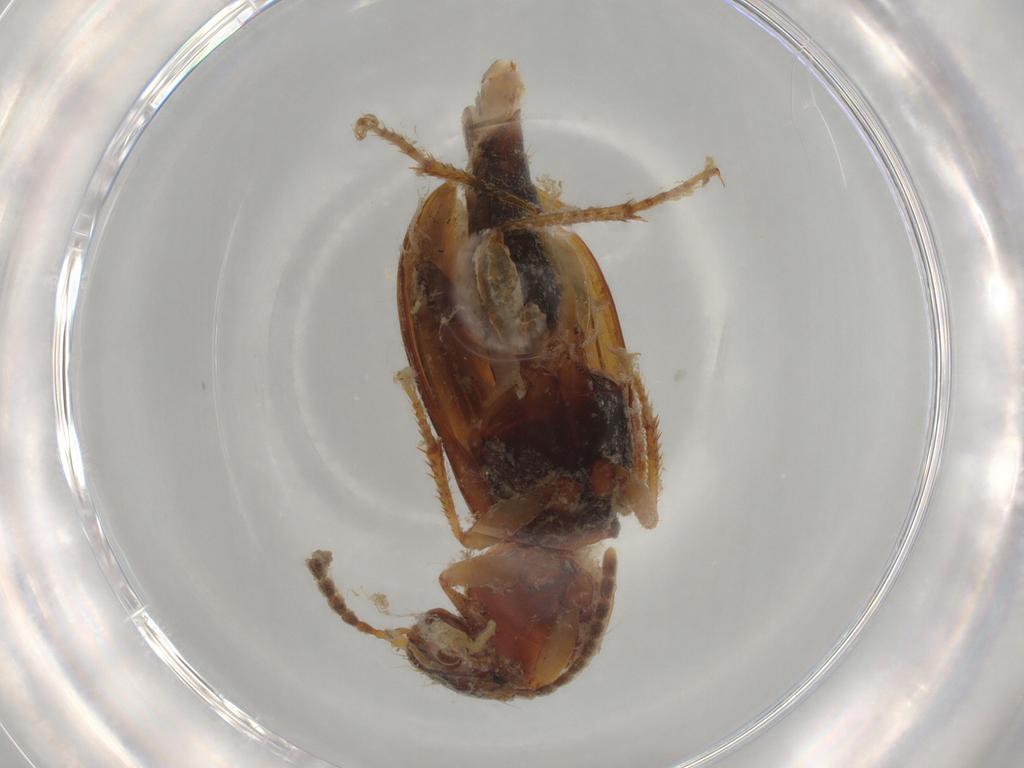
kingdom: Animalia
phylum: Arthropoda
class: Insecta
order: Coleoptera
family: Carabidae
